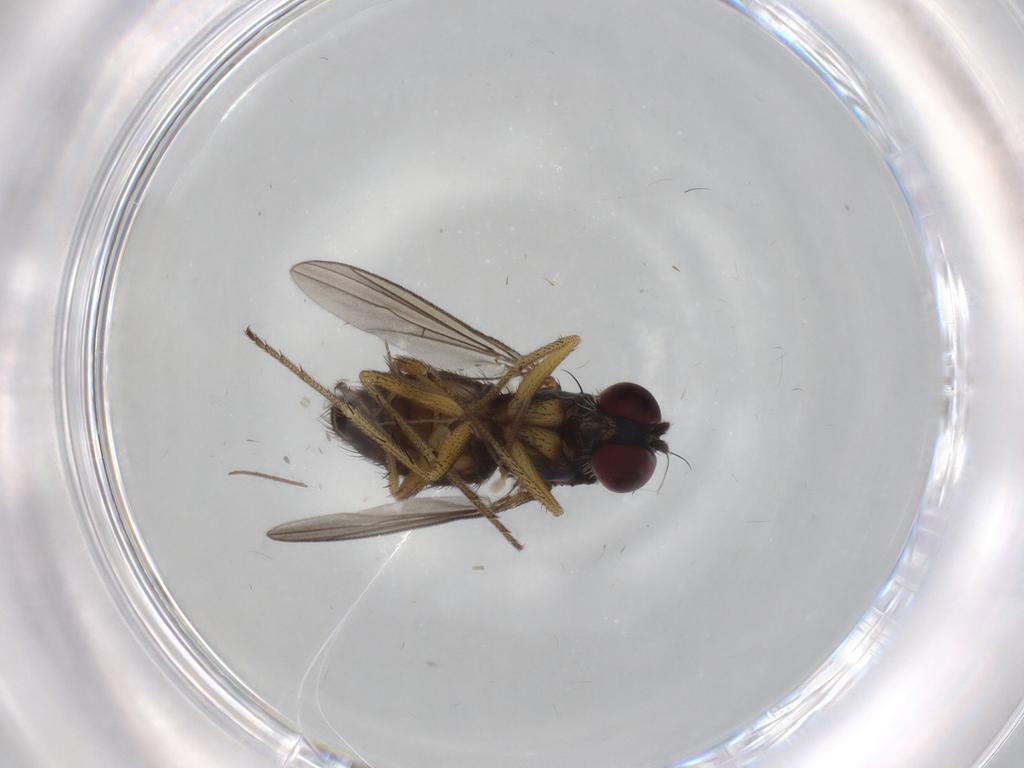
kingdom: Animalia
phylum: Arthropoda
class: Insecta
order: Diptera
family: Dolichopodidae
